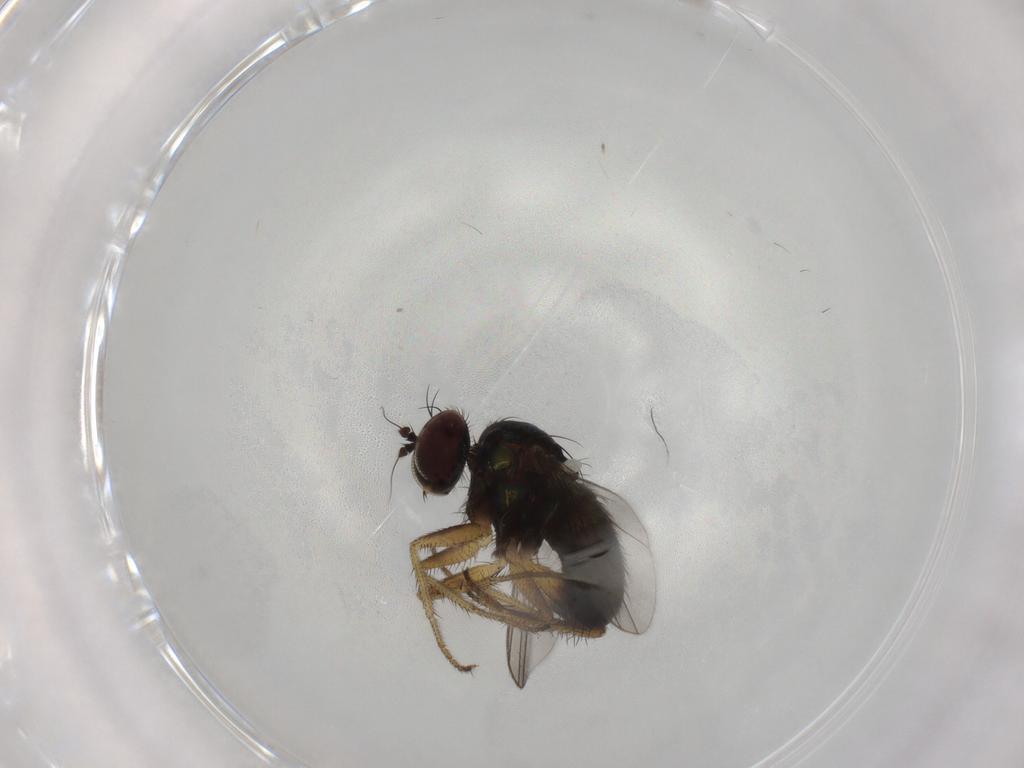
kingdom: Animalia
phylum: Arthropoda
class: Insecta
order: Diptera
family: Dolichopodidae
